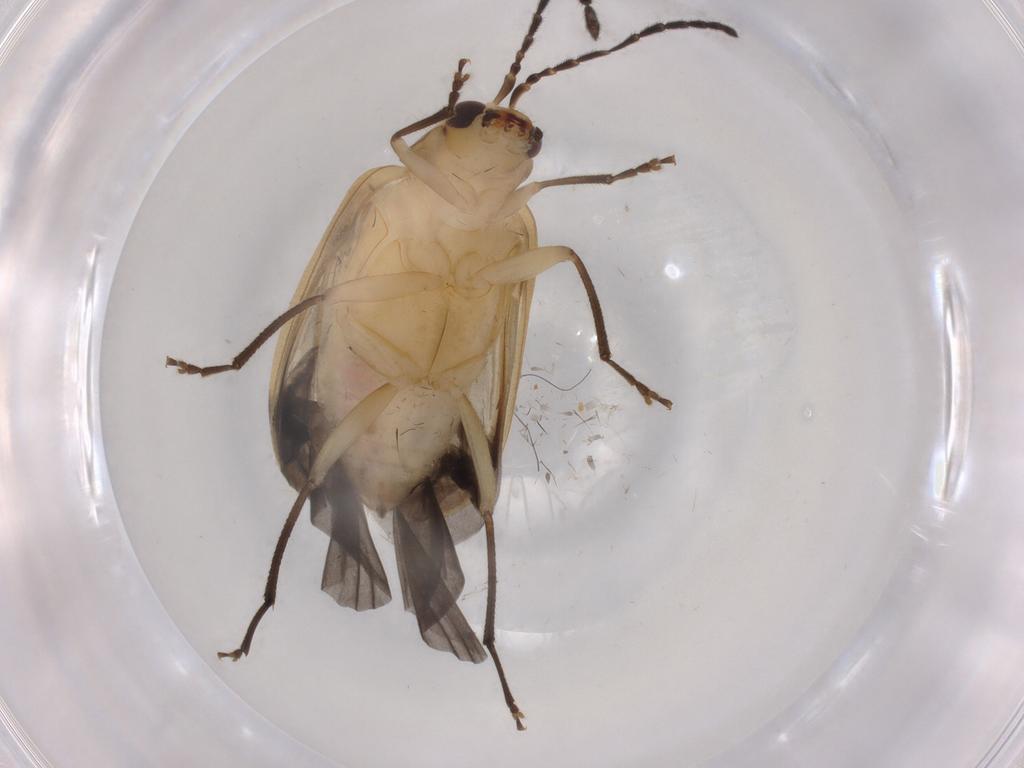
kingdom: Animalia
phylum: Arthropoda
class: Insecta
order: Coleoptera
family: Chrysomelidae
